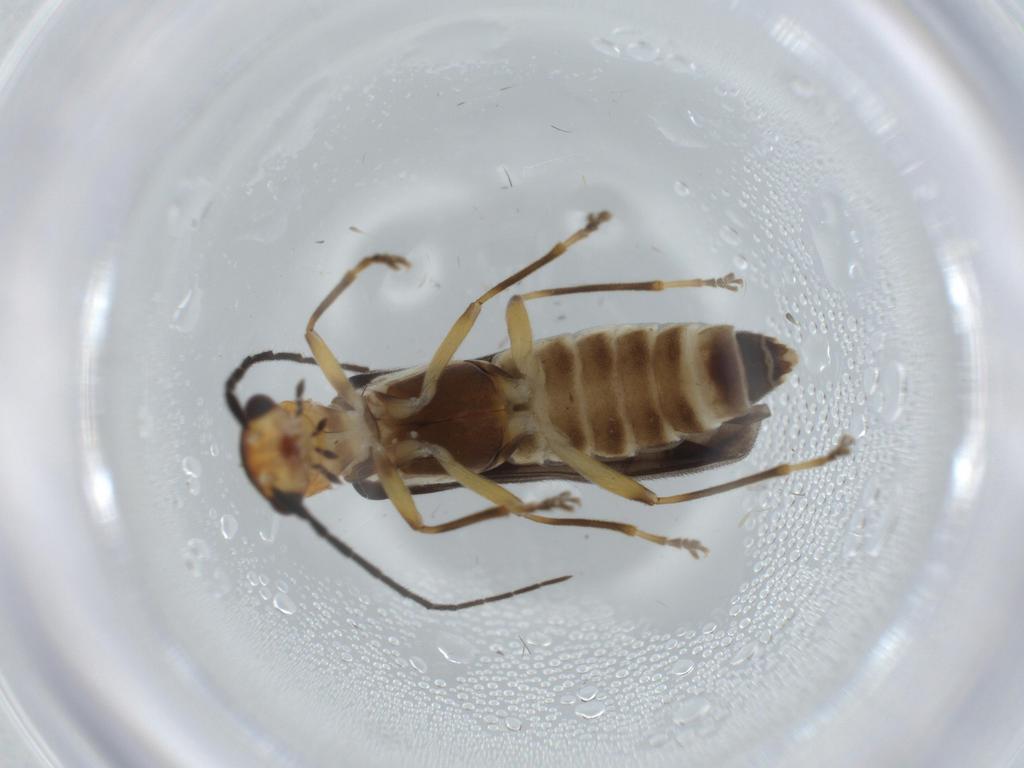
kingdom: Animalia
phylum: Arthropoda
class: Insecta
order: Coleoptera
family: Cantharidae
